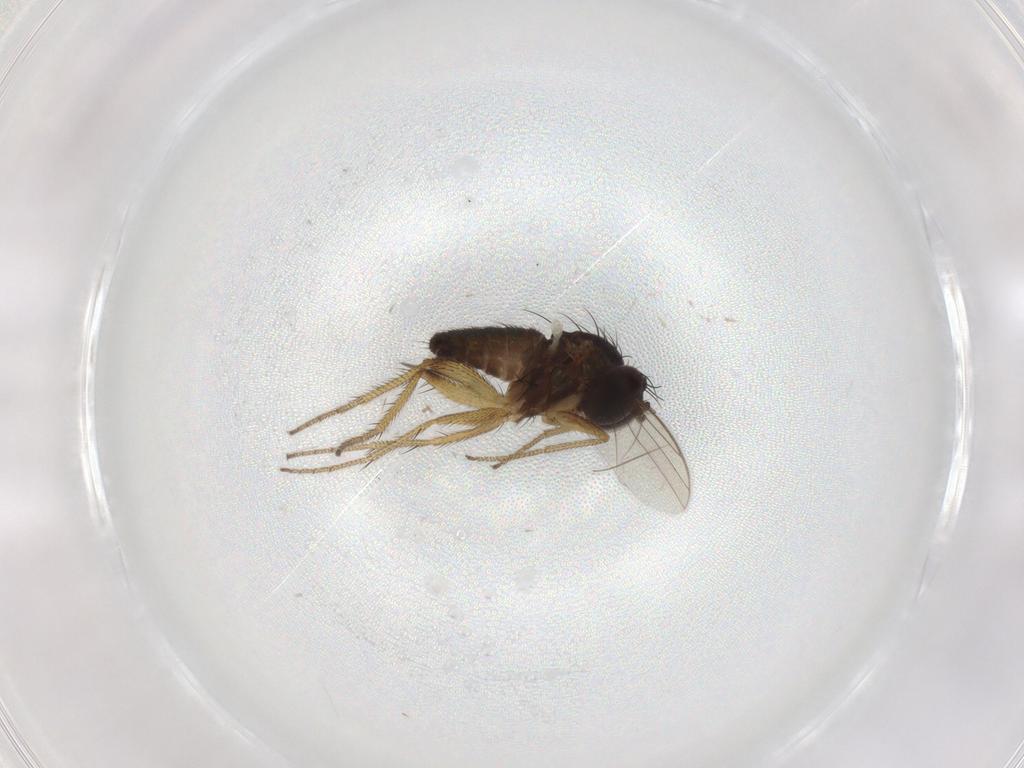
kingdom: Animalia
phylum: Arthropoda
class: Insecta
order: Diptera
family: Dolichopodidae
